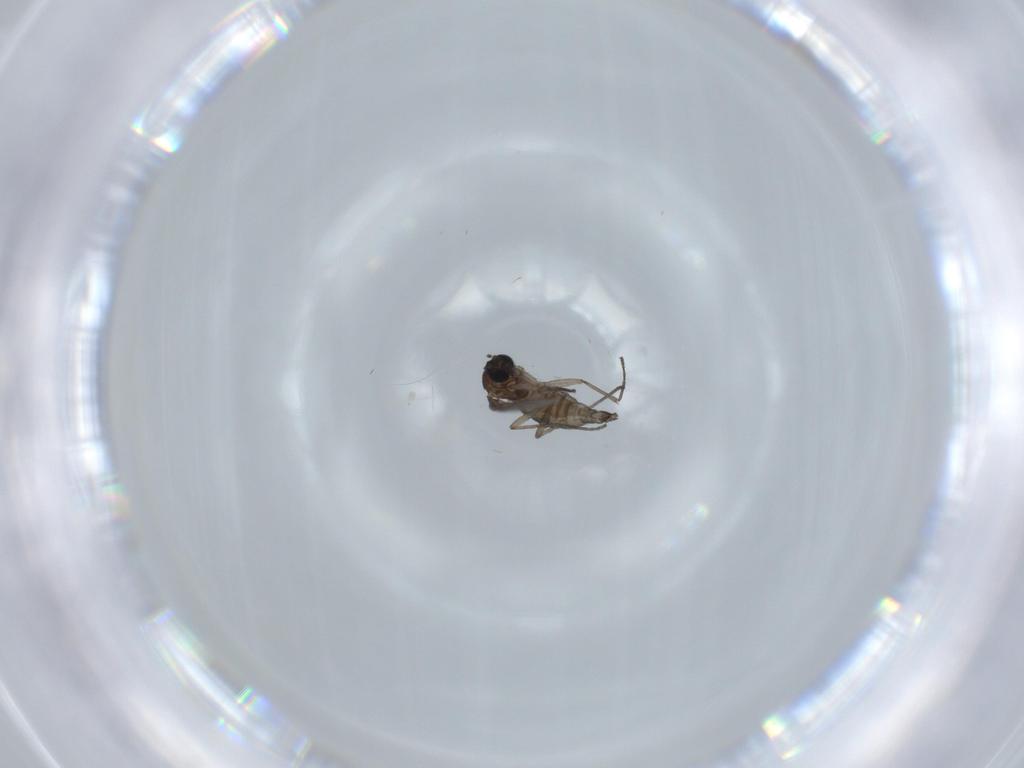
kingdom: Animalia
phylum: Arthropoda
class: Insecta
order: Diptera
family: Sciaridae
